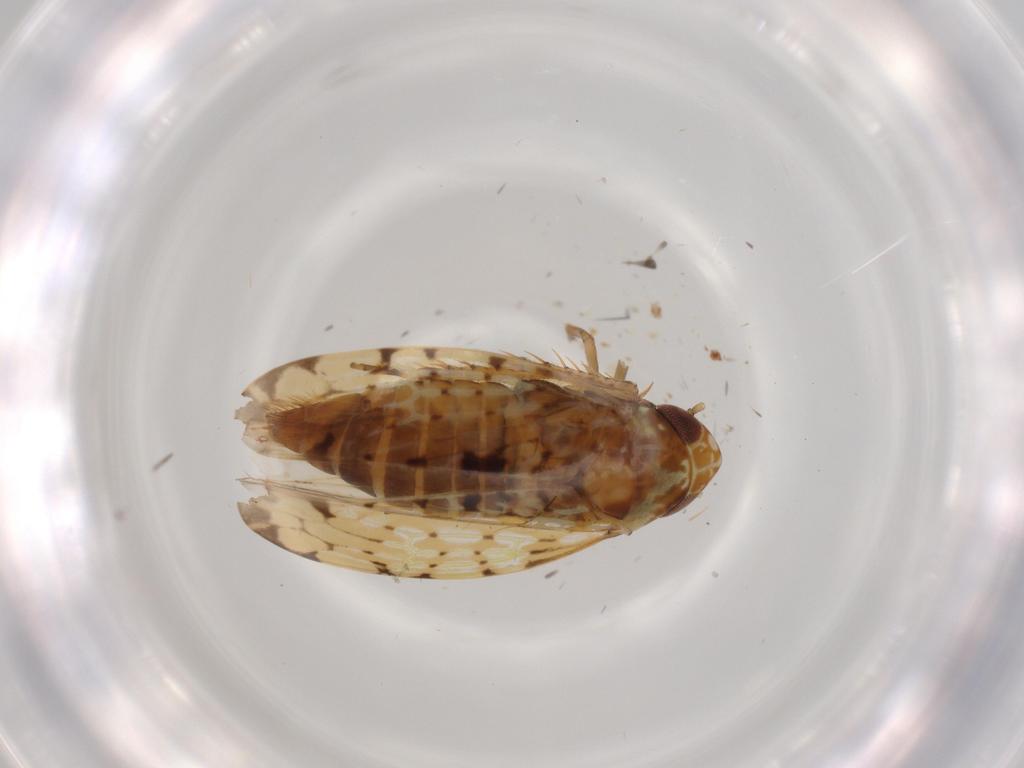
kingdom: Animalia
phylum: Arthropoda
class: Insecta
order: Hemiptera
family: Cicadellidae
